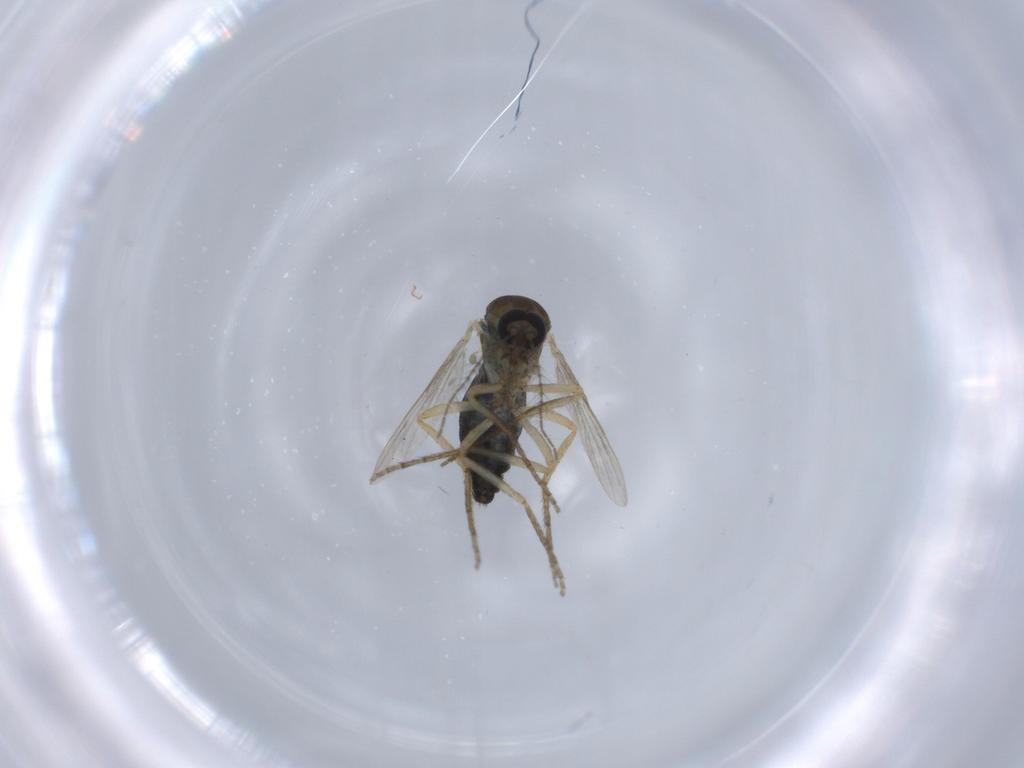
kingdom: Animalia
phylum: Arthropoda
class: Insecta
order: Diptera
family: Ceratopogonidae
